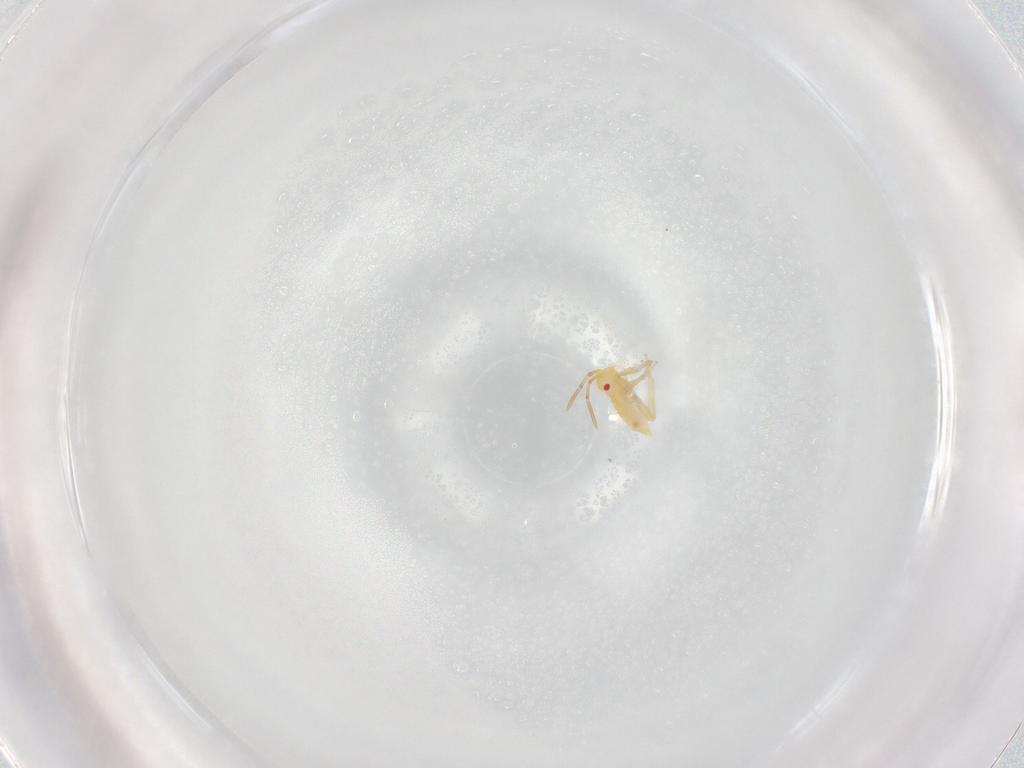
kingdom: Animalia
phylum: Arthropoda
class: Insecta
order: Hemiptera
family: Miridae
